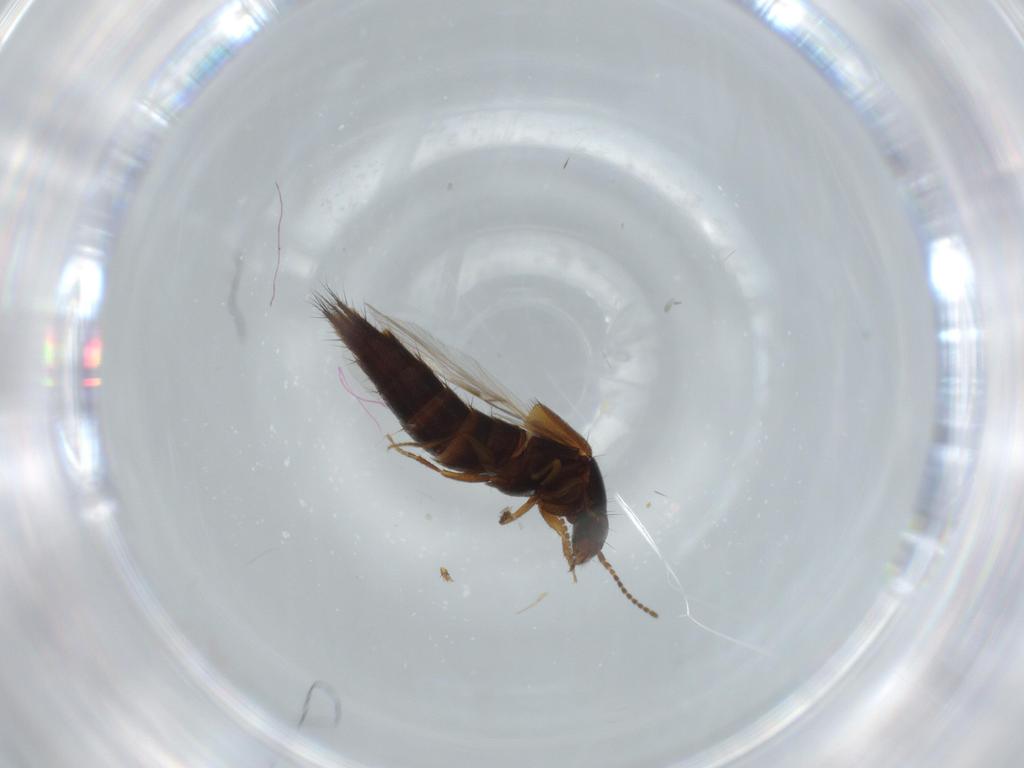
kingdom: Animalia
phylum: Arthropoda
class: Insecta
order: Coleoptera
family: Staphylinidae
